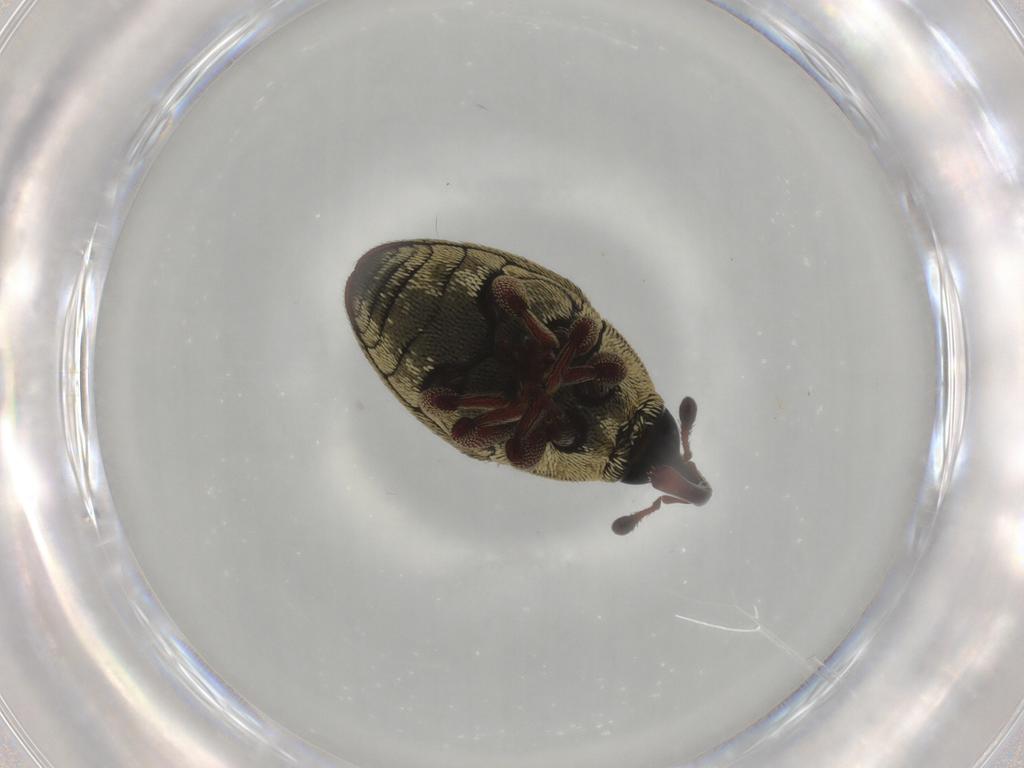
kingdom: Animalia
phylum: Arthropoda
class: Insecta
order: Coleoptera
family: Curculionidae
